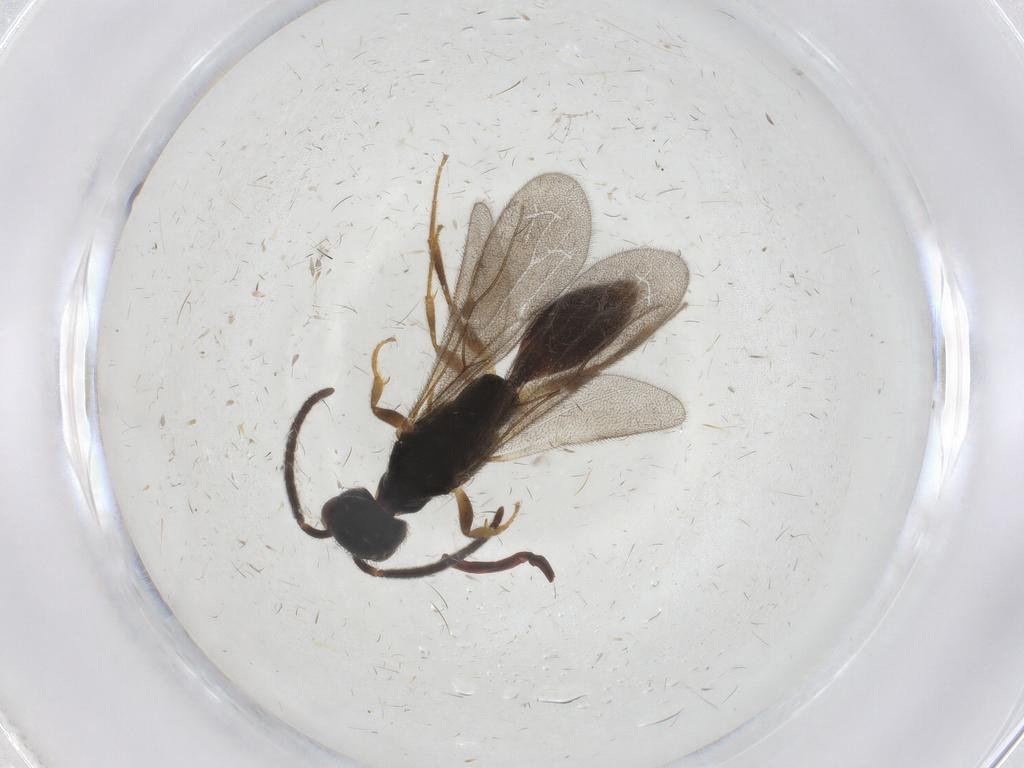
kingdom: Animalia
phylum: Arthropoda
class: Insecta
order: Hymenoptera
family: Bethylidae
